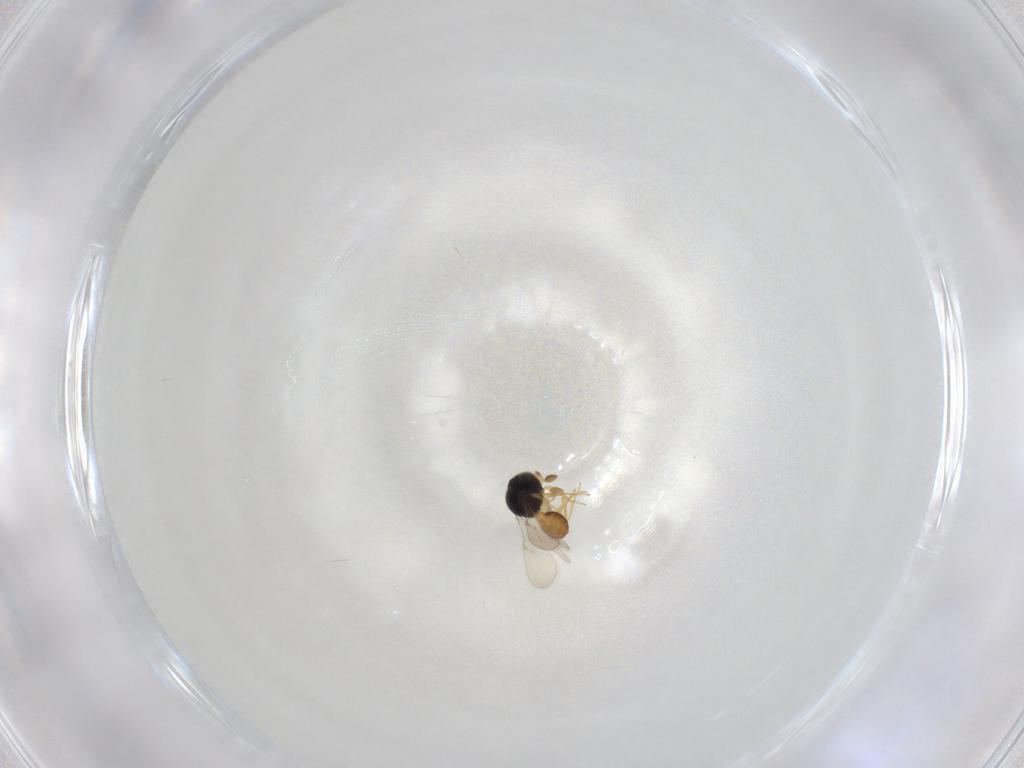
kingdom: Animalia
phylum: Arthropoda
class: Insecta
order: Hymenoptera
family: Scelionidae
